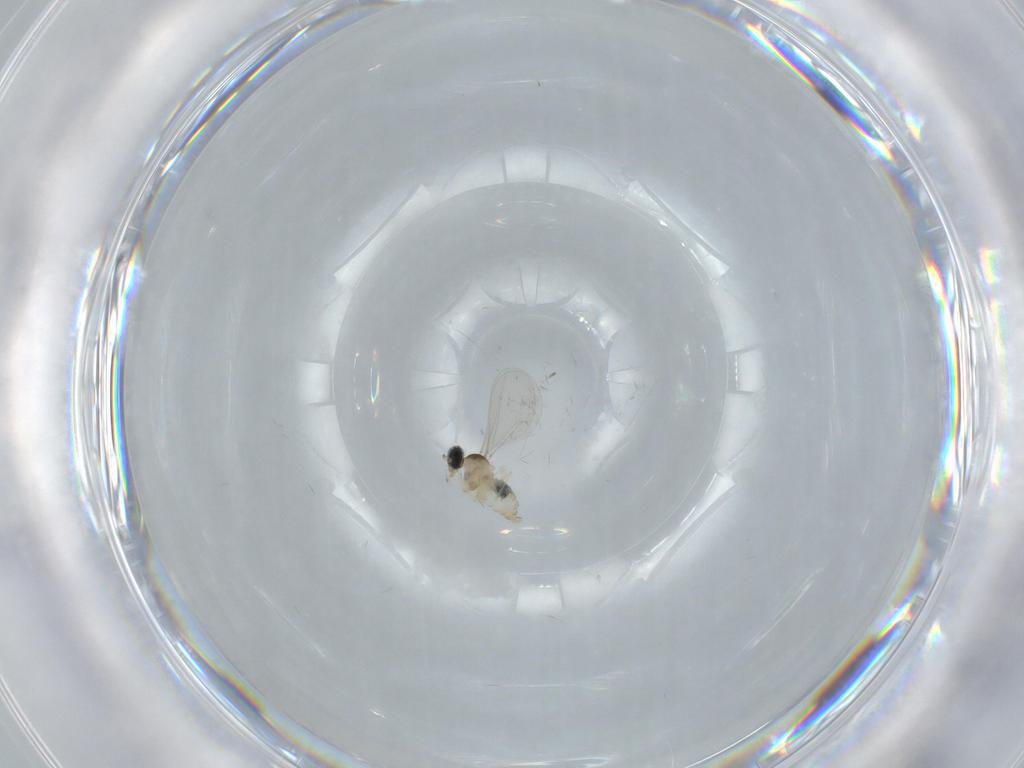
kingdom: Animalia
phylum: Arthropoda
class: Insecta
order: Diptera
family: Cecidomyiidae
